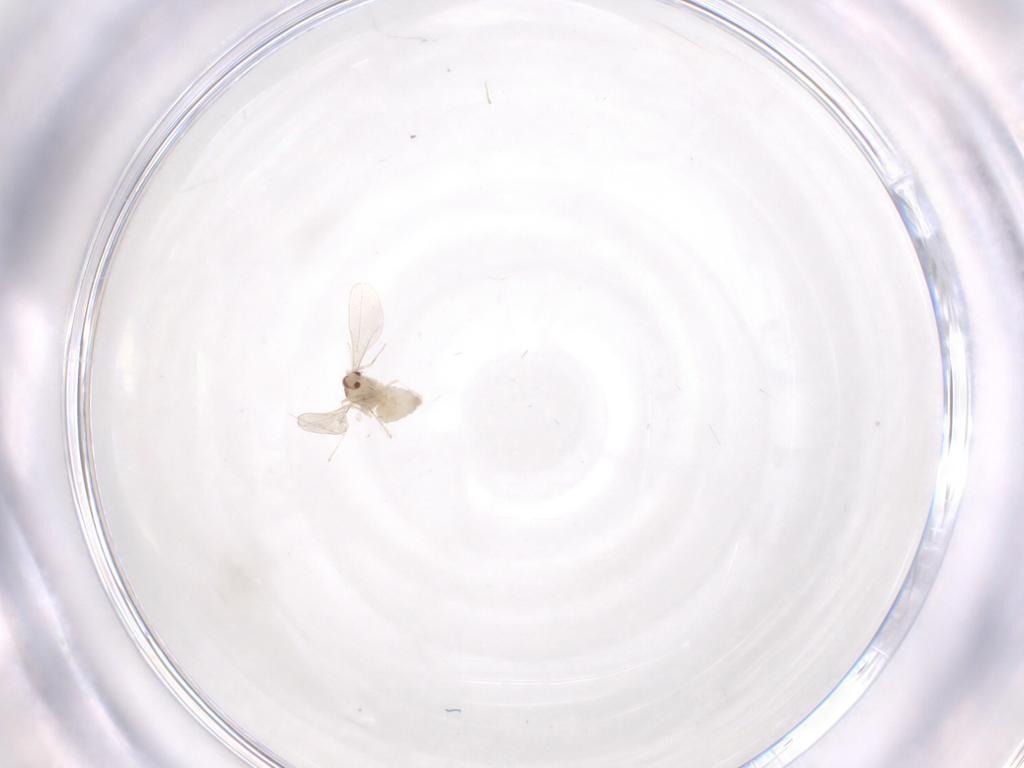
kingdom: Animalia
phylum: Arthropoda
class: Insecta
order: Diptera
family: Cecidomyiidae
